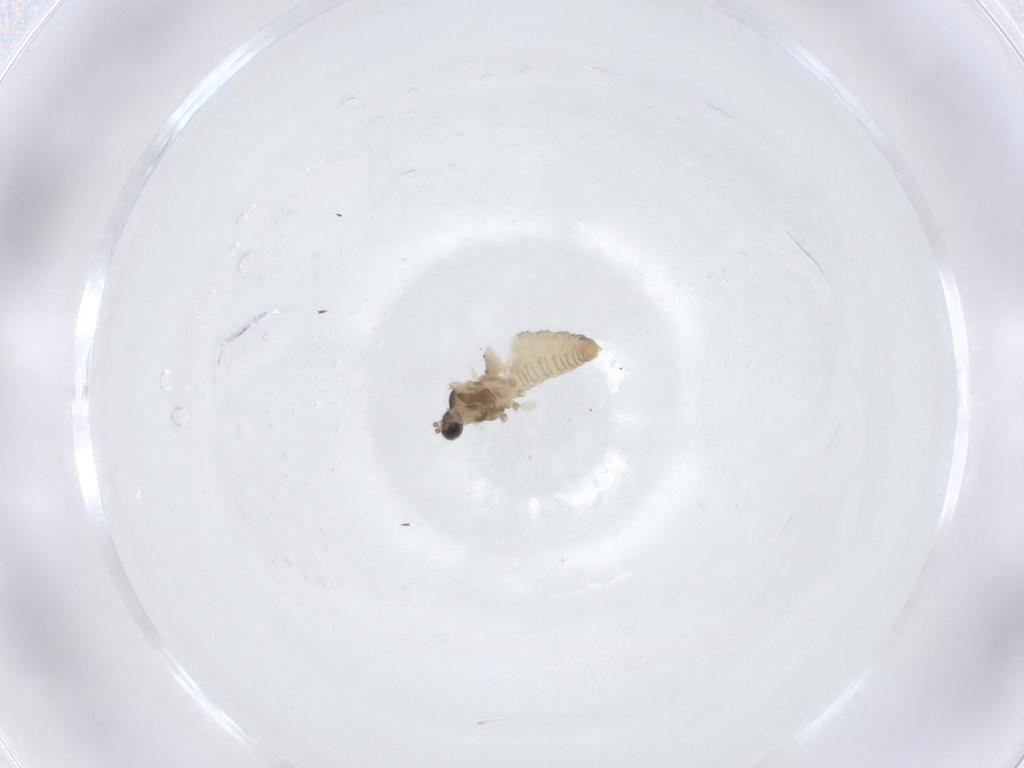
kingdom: Animalia
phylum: Arthropoda
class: Insecta
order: Diptera
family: Cecidomyiidae
